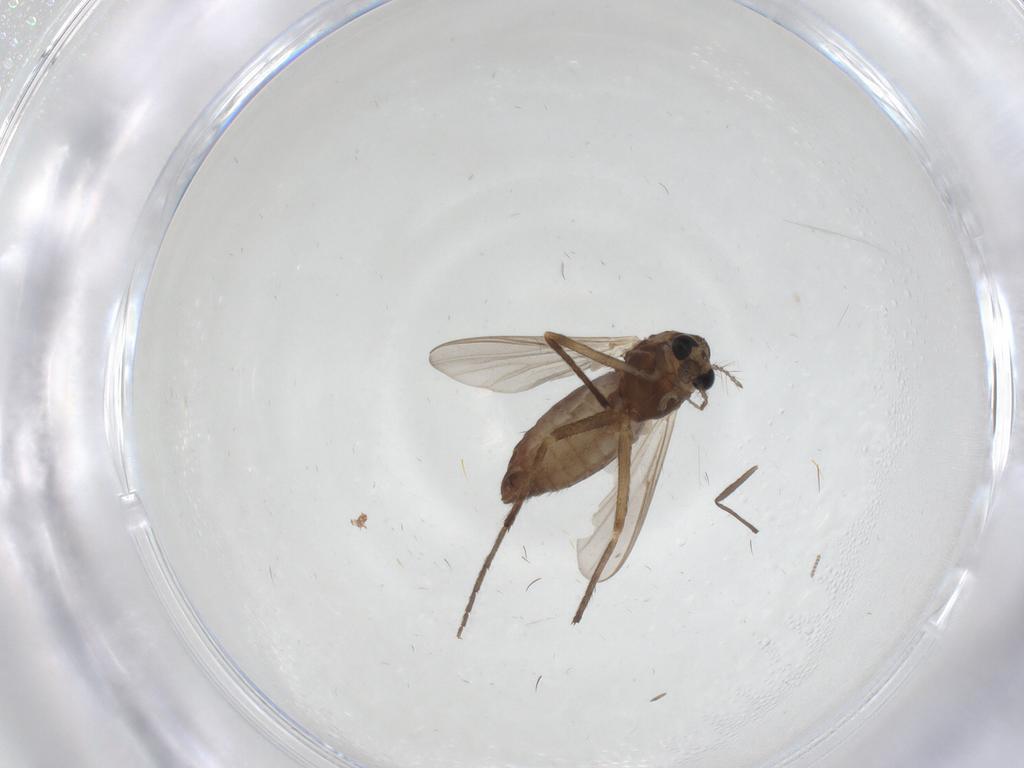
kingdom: Animalia
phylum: Arthropoda
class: Insecta
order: Diptera
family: Chironomidae
